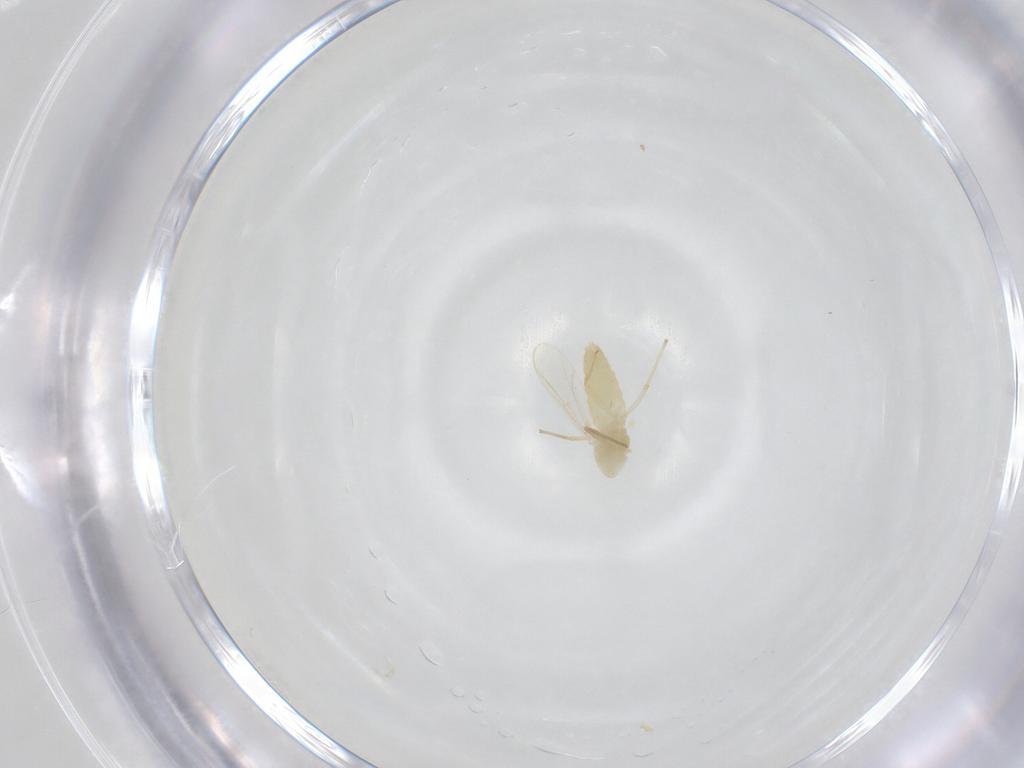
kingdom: Animalia
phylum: Arthropoda
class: Insecta
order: Diptera
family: Chironomidae
